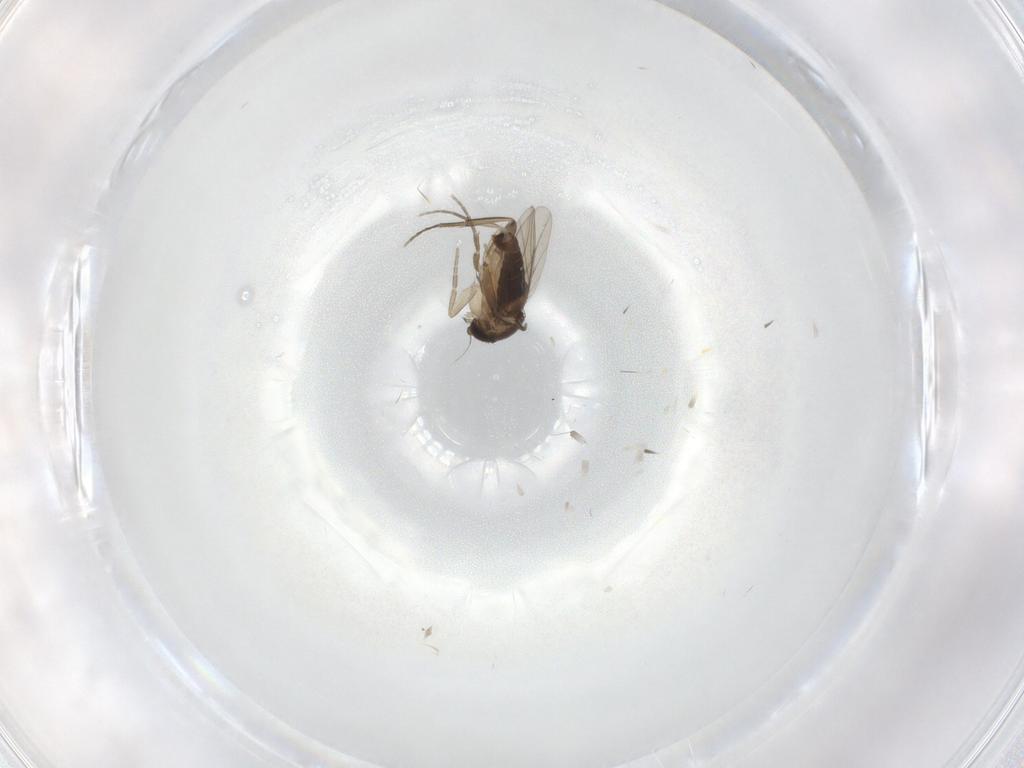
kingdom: Animalia
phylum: Arthropoda
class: Insecta
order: Diptera
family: Phoridae
